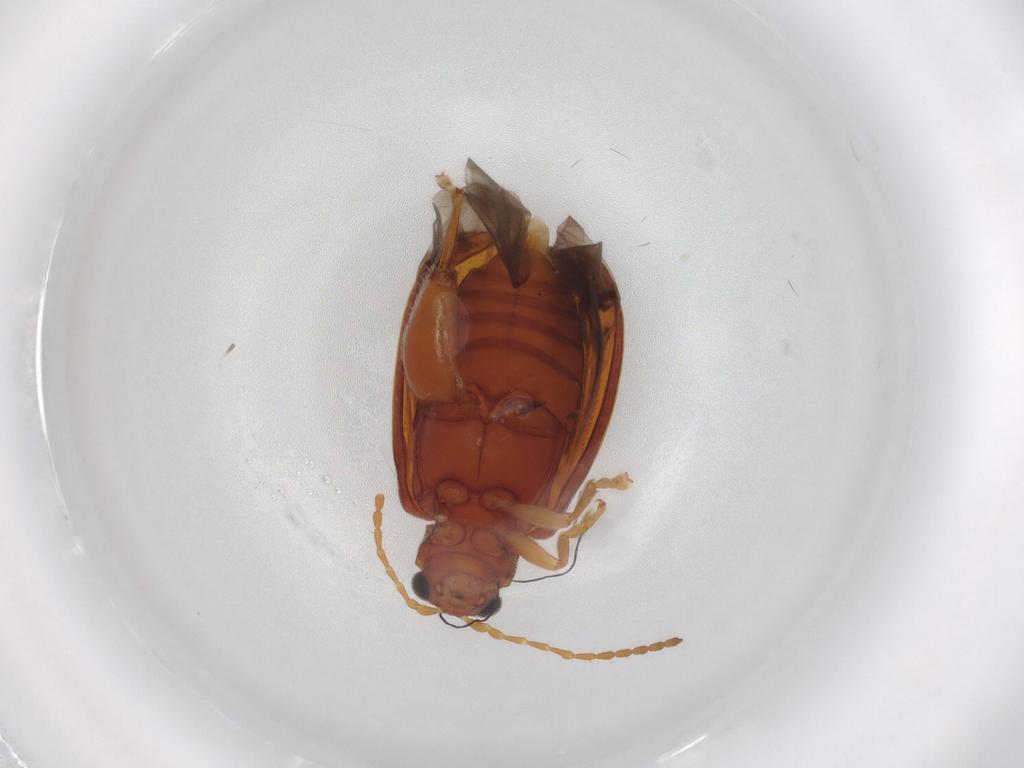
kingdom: Animalia
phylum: Arthropoda
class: Insecta
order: Coleoptera
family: Chrysomelidae
